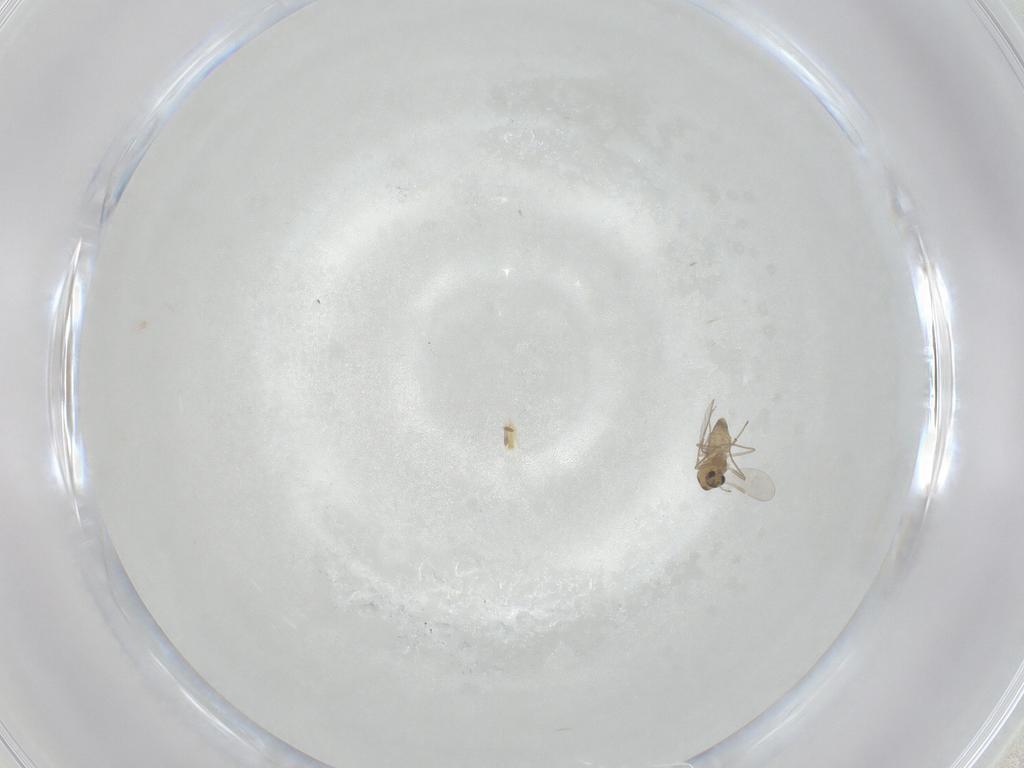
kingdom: Animalia
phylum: Arthropoda
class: Insecta
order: Diptera
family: Chironomidae
